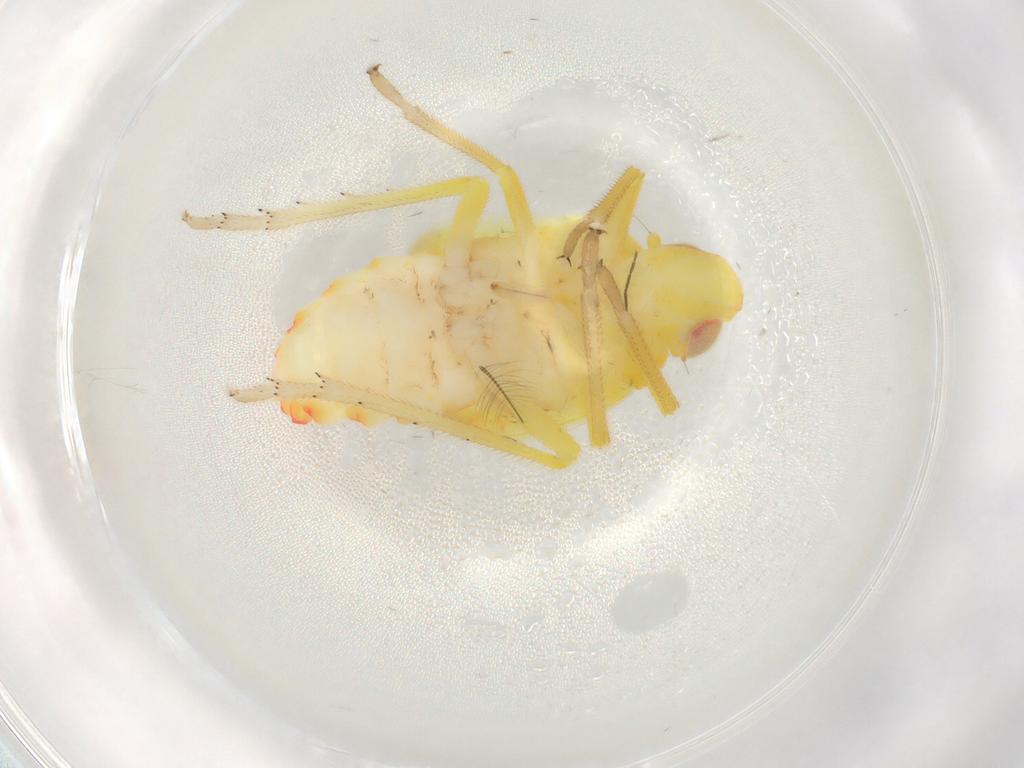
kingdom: Animalia
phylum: Arthropoda
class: Insecta
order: Hemiptera
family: Tropiduchidae
